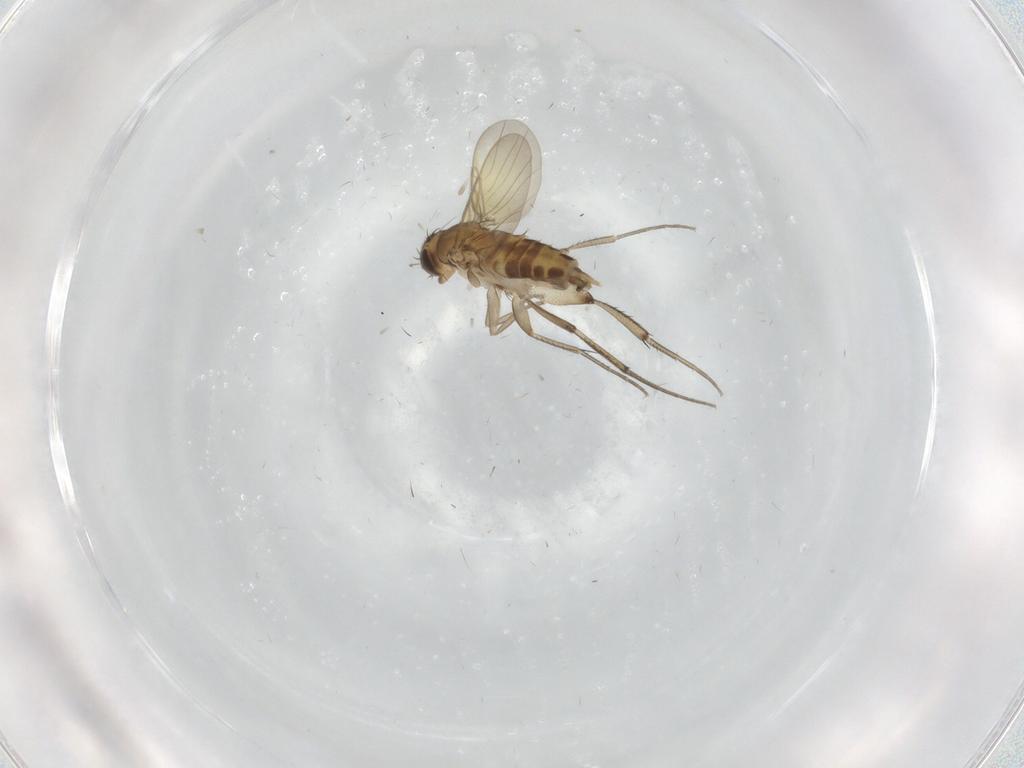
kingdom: Animalia
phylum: Arthropoda
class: Insecta
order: Diptera
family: Phoridae
